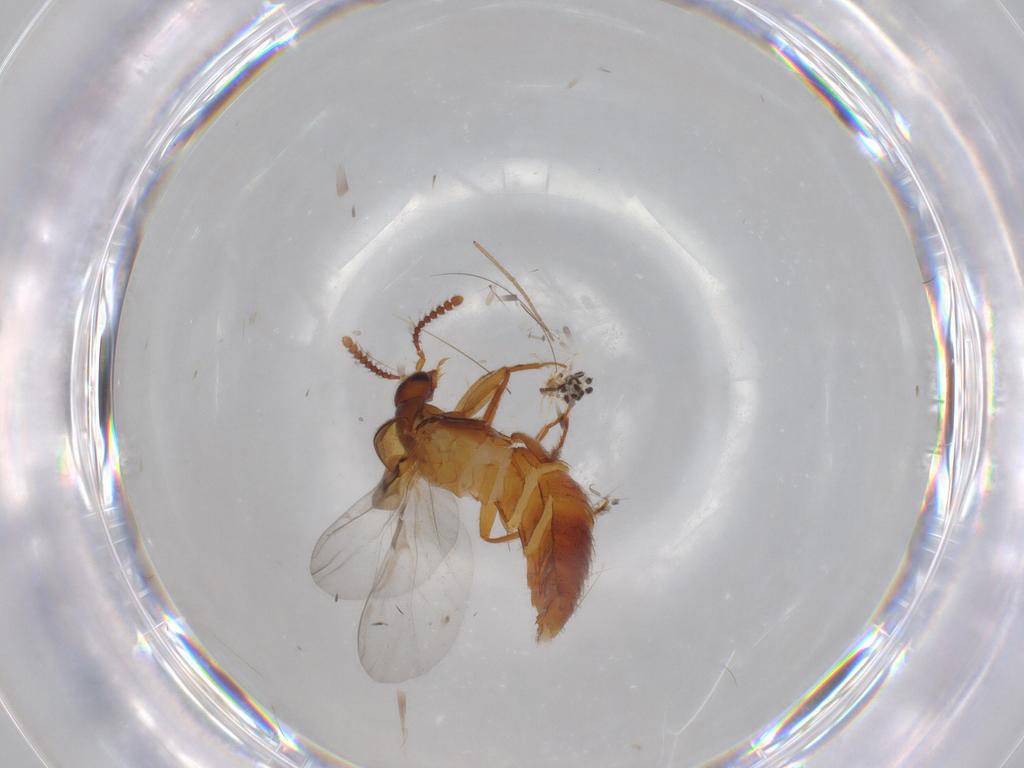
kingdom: Animalia
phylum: Arthropoda
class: Insecta
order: Coleoptera
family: Staphylinidae
